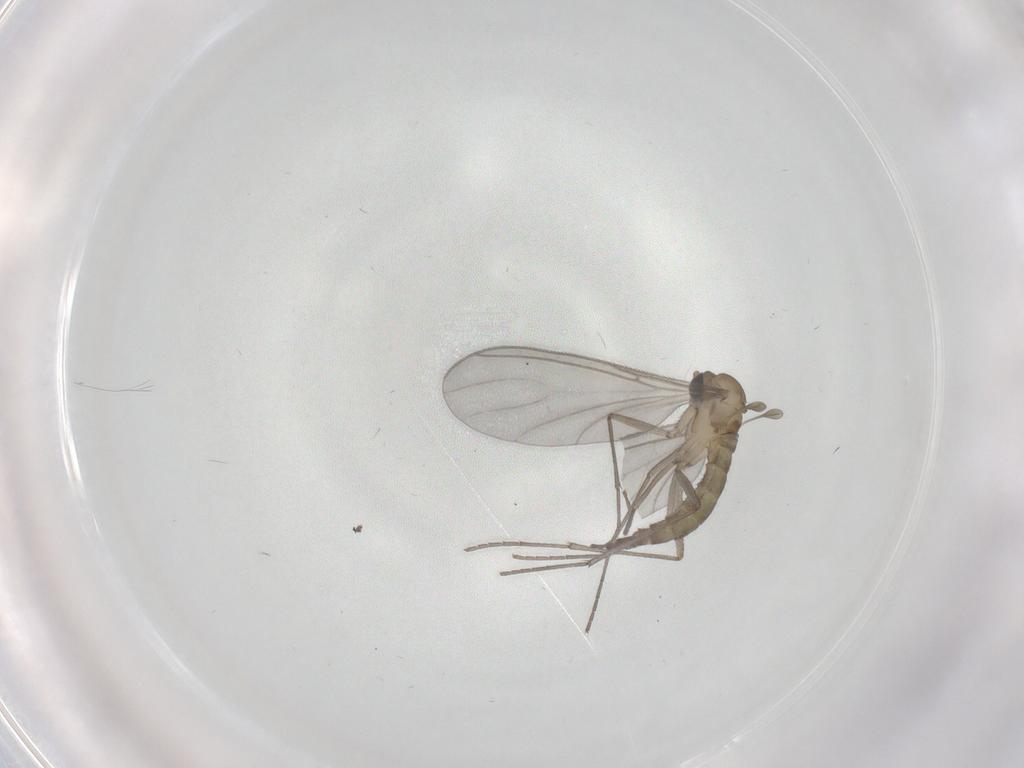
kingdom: Animalia
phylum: Arthropoda
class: Insecta
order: Diptera
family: Sciaridae
